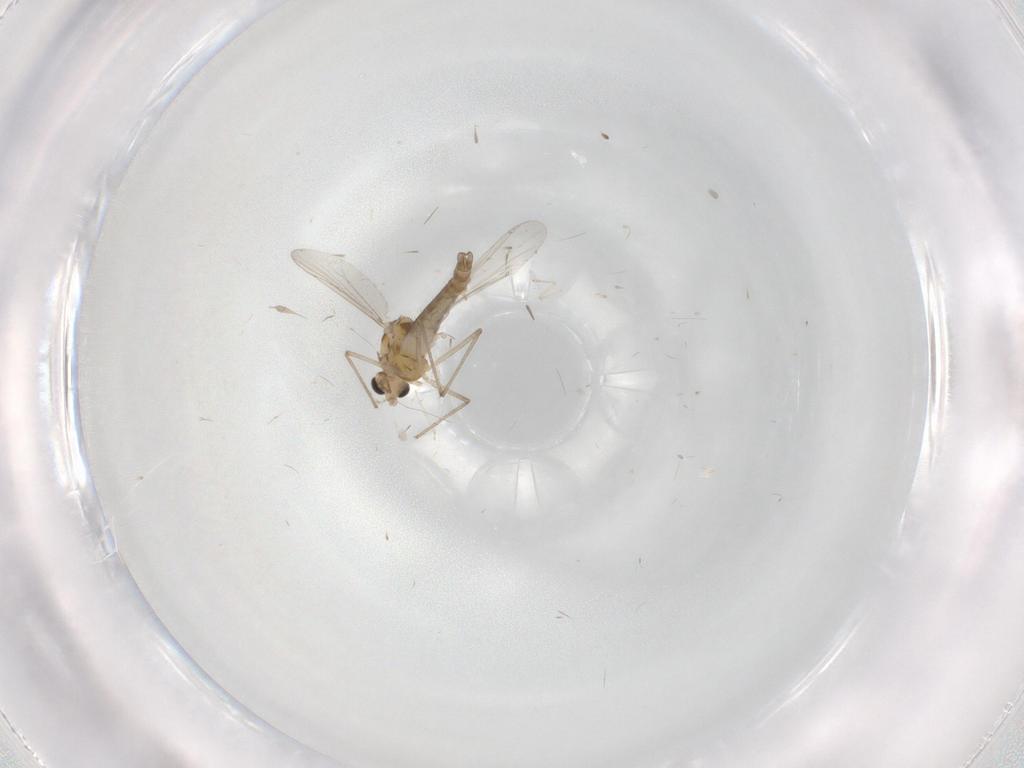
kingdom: Animalia
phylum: Arthropoda
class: Insecta
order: Diptera
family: Chironomidae
